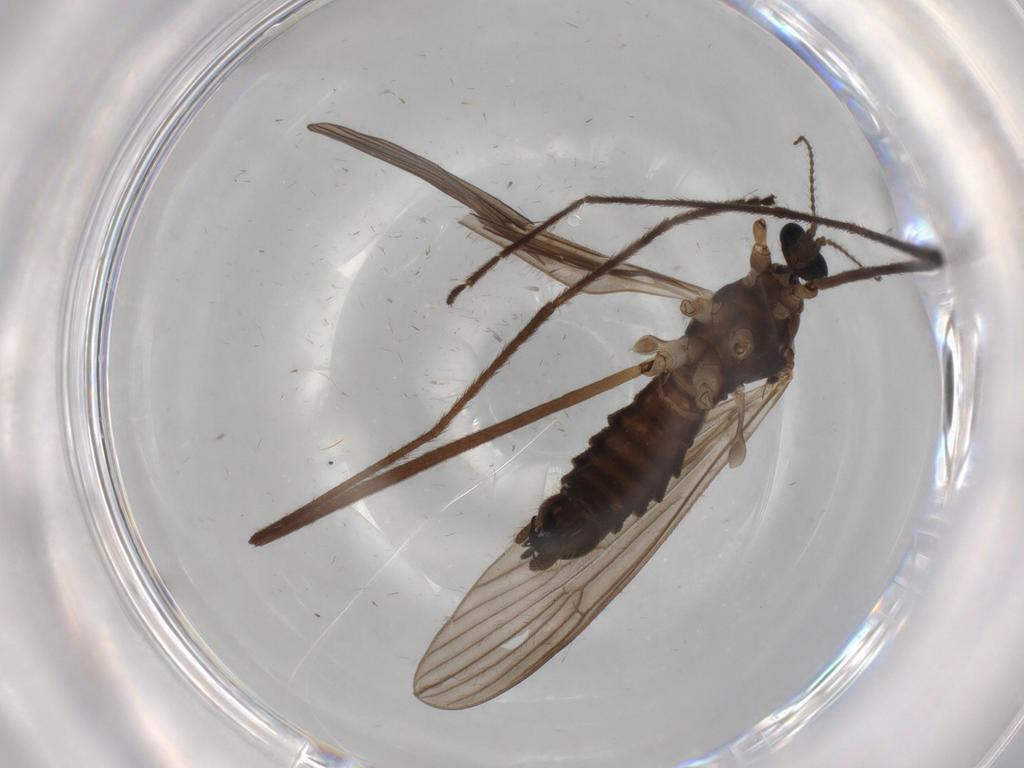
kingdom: Animalia
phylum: Arthropoda
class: Insecta
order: Diptera
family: Limoniidae
